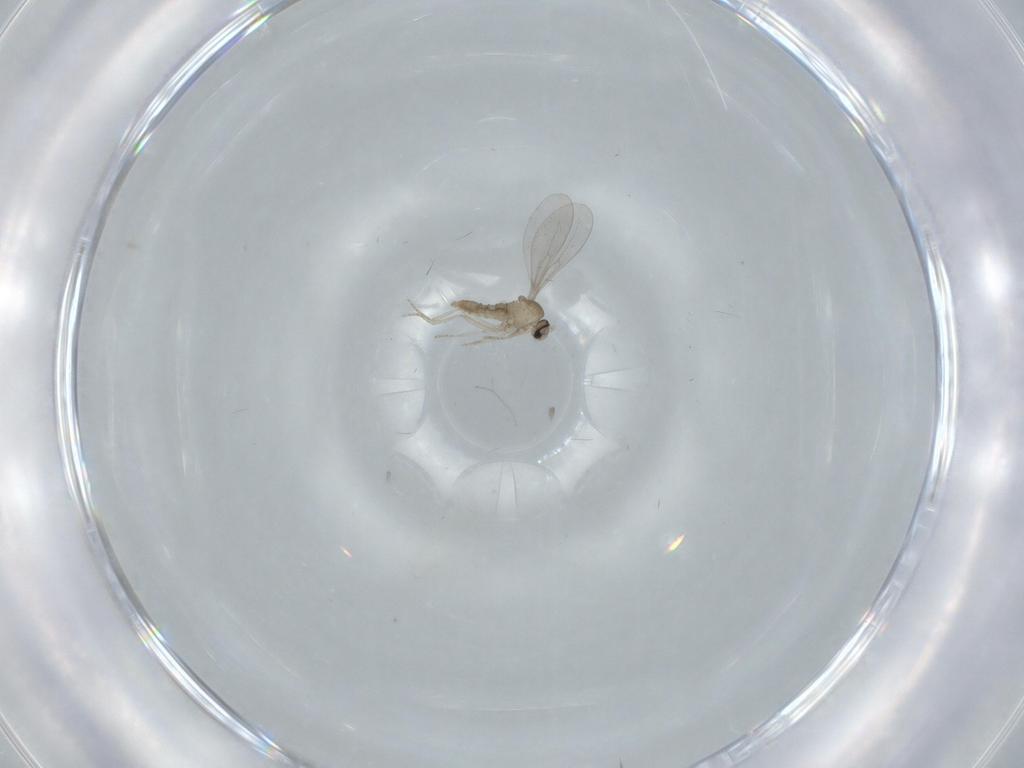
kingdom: Animalia
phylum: Arthropoda
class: Insecta
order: Diptera
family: Cecidomyiidae
